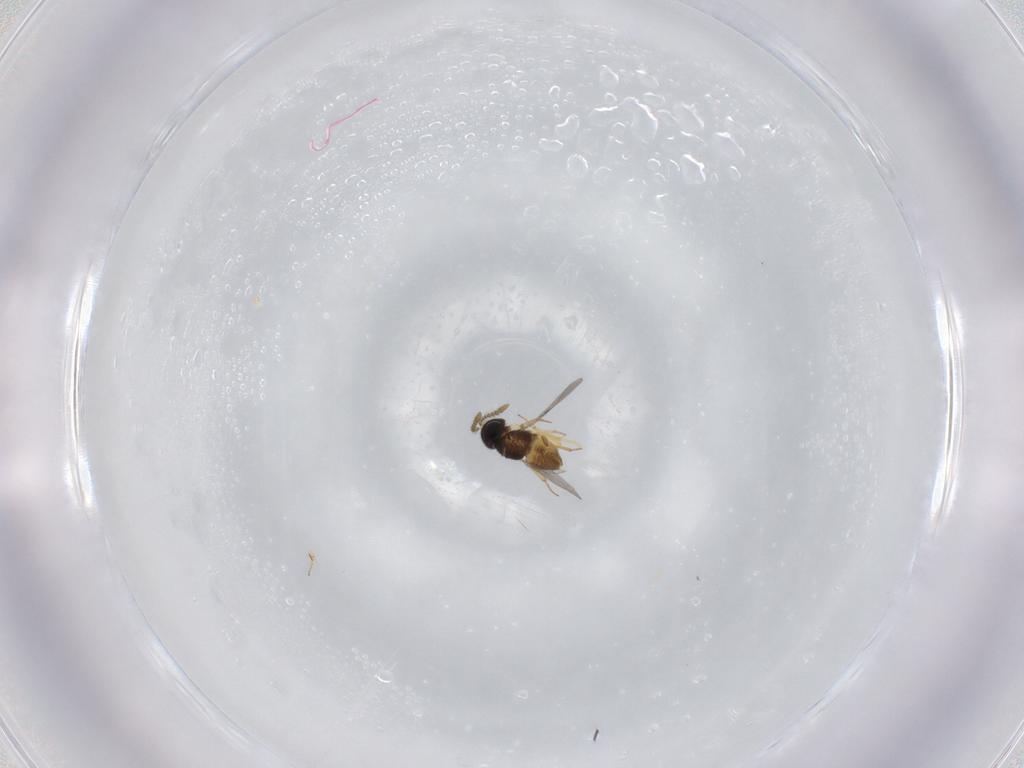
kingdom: Animalia
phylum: Arthropoda
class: Insecta
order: Hymenoptera
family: Encyrtidae
